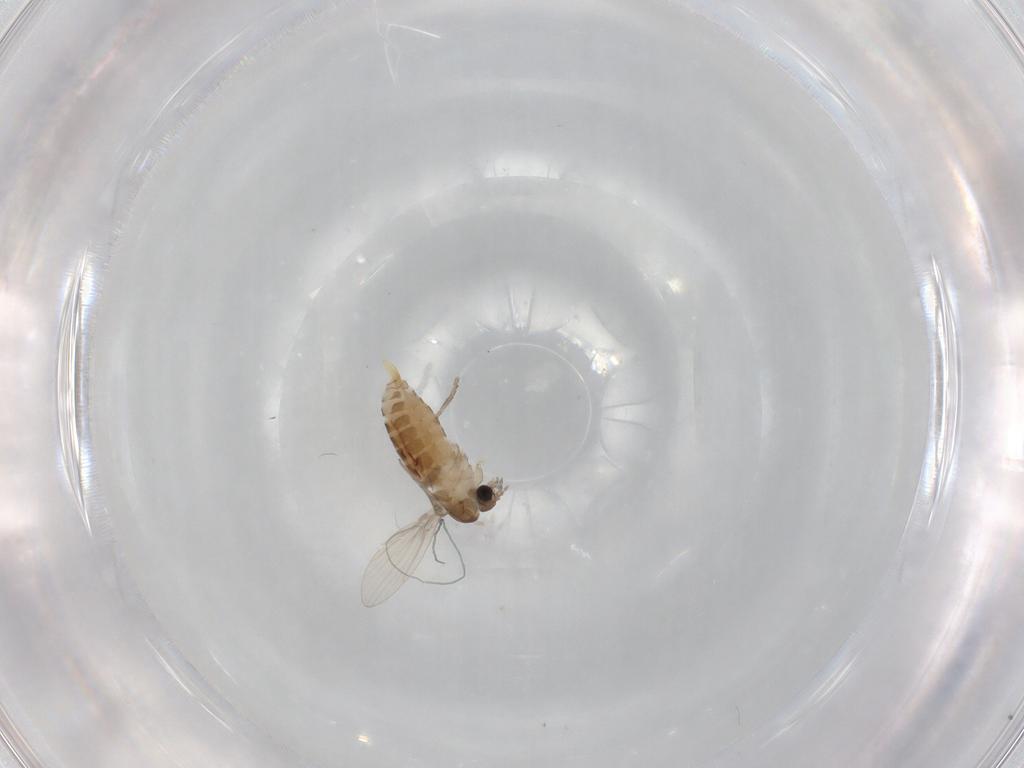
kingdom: Animalia
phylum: Arthropoda
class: Insecta
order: Diptera
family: Psychodidae
